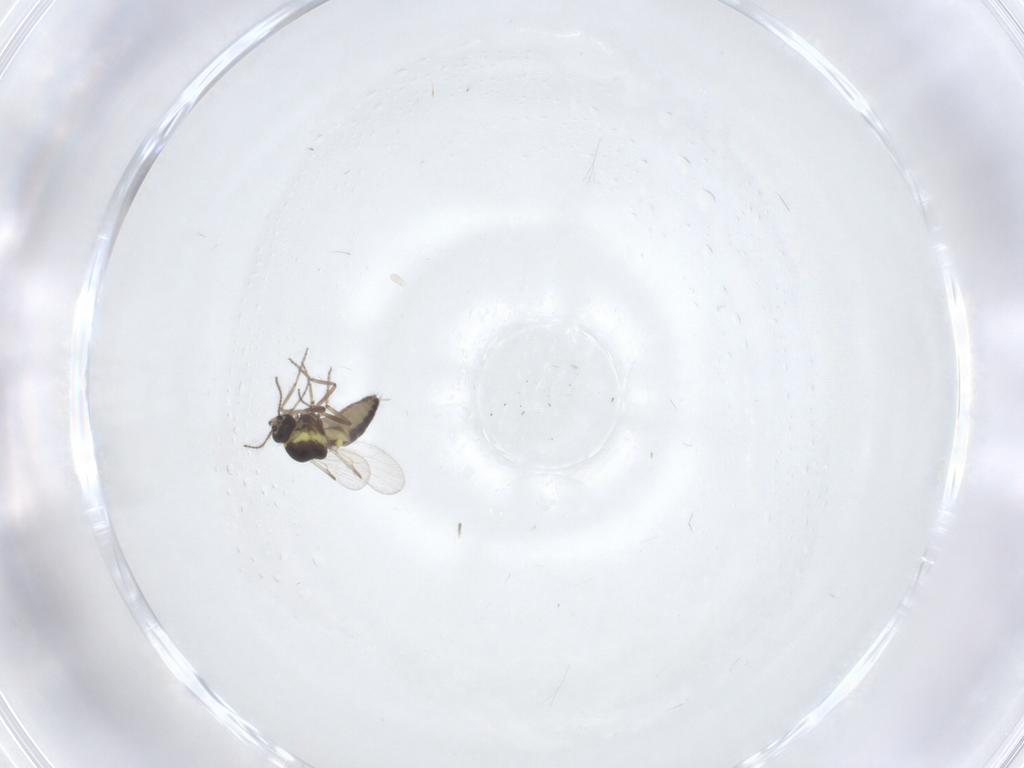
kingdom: Animalia
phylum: Arthropoda
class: Insecta
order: Diptera
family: Ceratopogonidae
